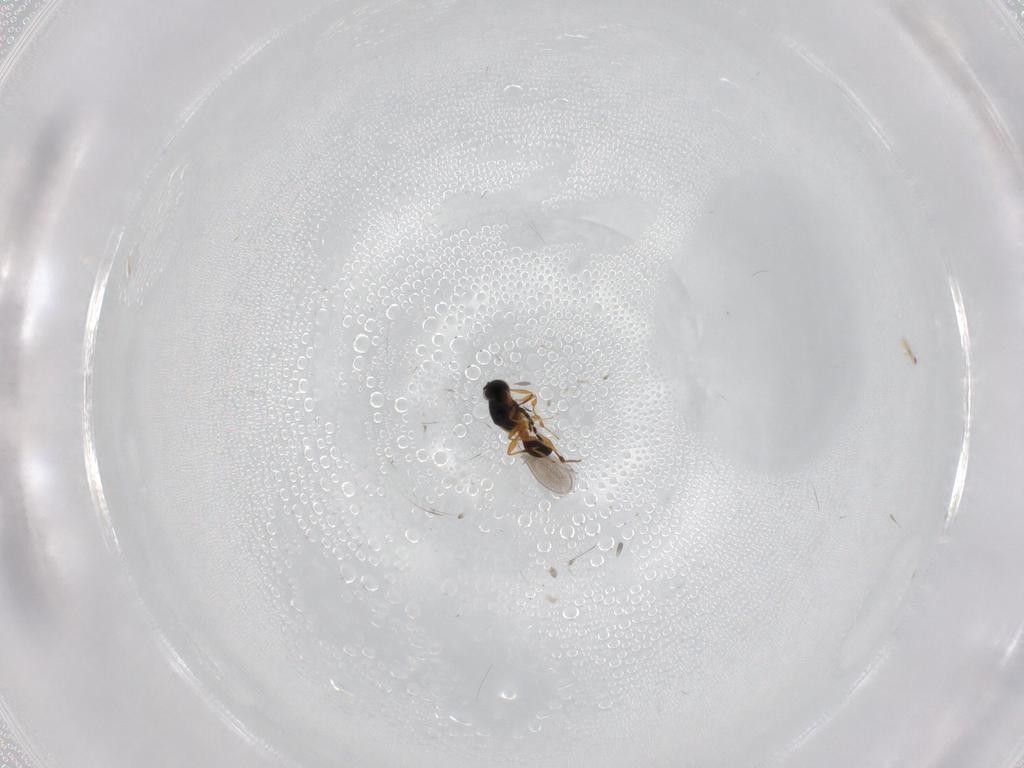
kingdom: Animalia
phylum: Arthropoda
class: Insecta
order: Hymenoptera
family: Platygastridae
